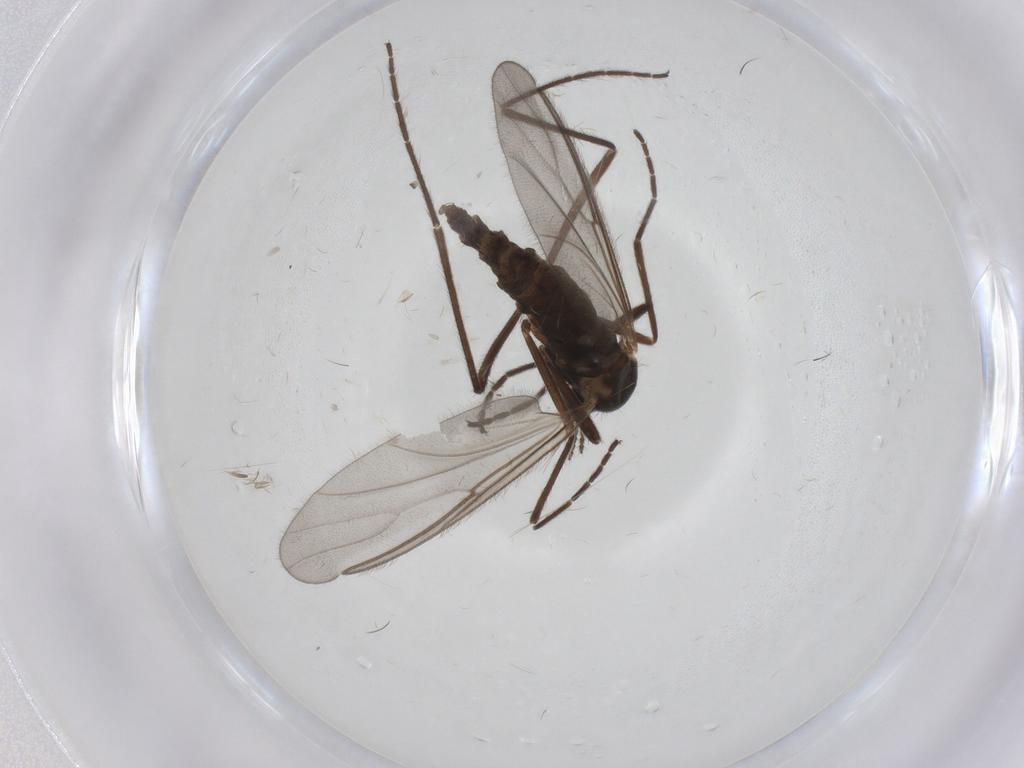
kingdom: Animalia
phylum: Arthropoda
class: Insecta
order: Diptera
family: Cecidomyiidae
